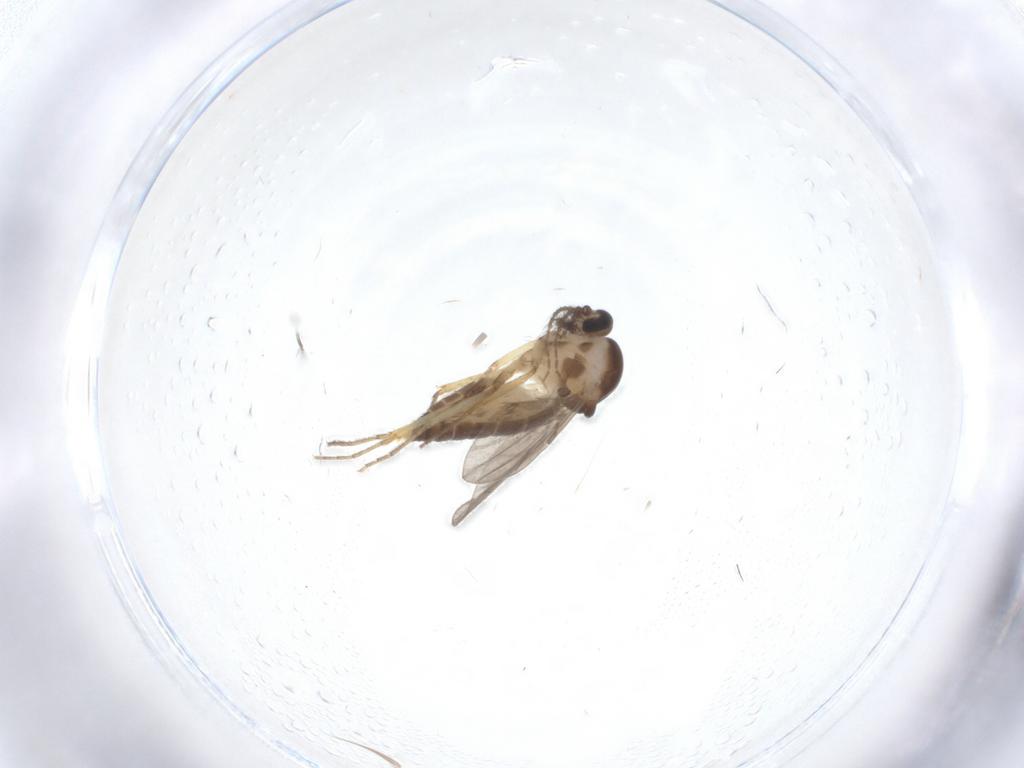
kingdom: Animalia
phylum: Arthropoda
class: Insecta
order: Diptera
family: Ceratopogonidae
